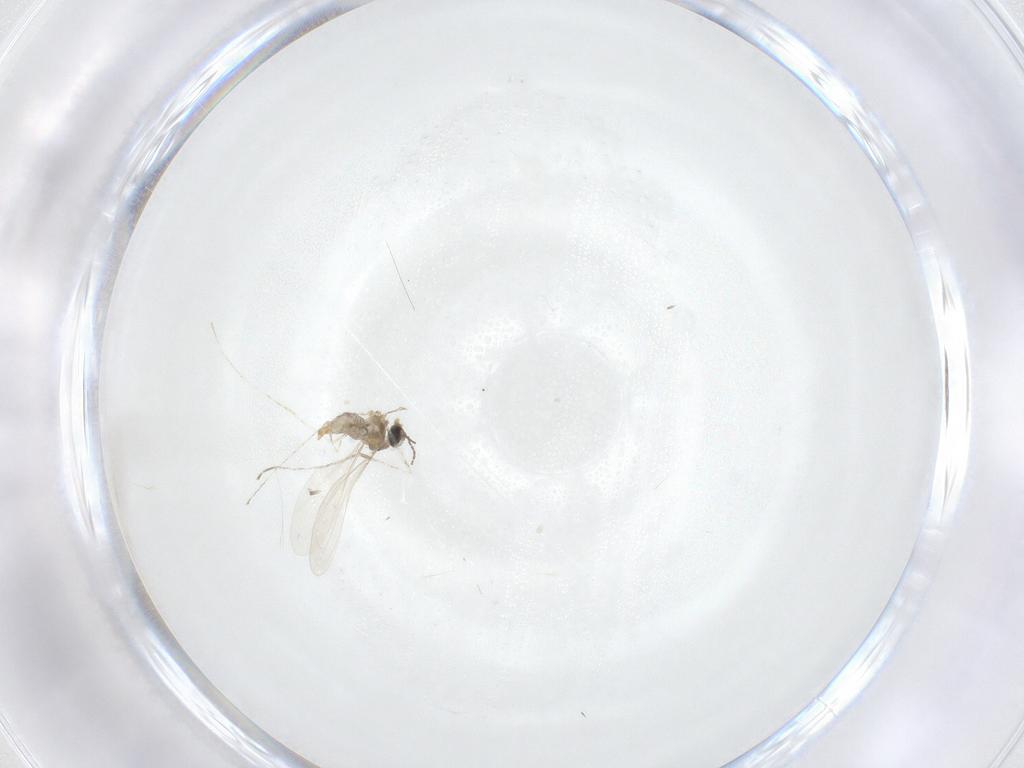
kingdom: Animalia
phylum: Arthropoda
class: Insecta
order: Diptera
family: Cecidomyiidae
